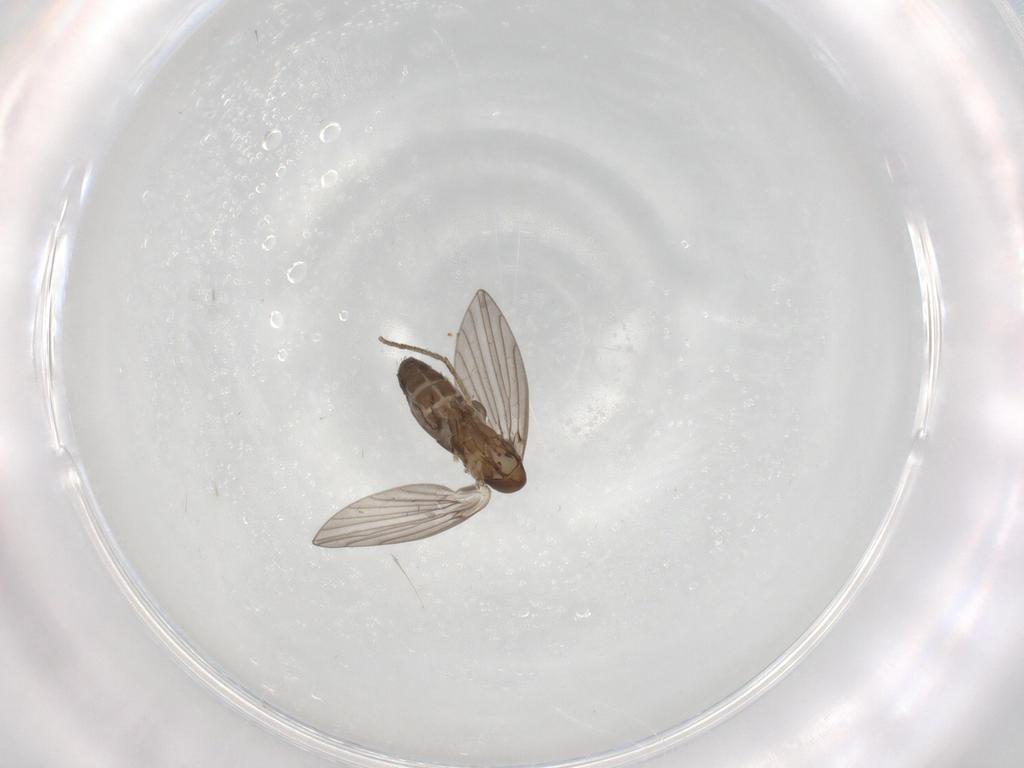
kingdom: Animalia
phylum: Arthropoda
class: Insecta
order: Diptera
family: Psychodidae
